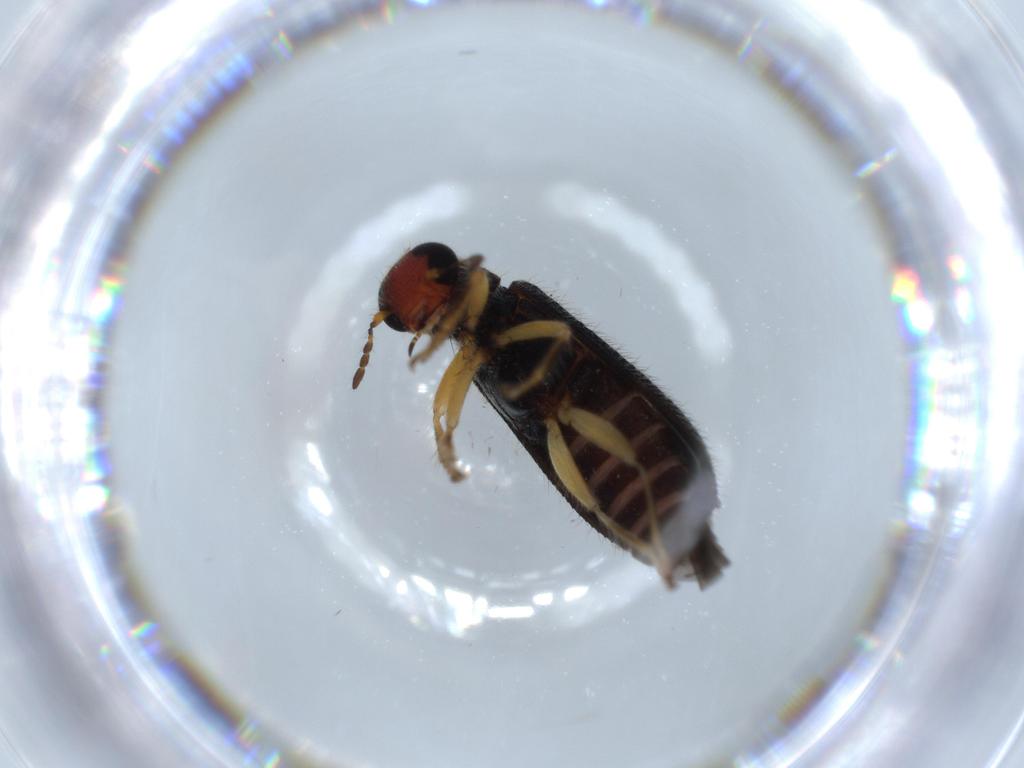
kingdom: Animalia
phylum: Arthropoda
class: Insecta
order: Coleoptera
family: Cleridae
